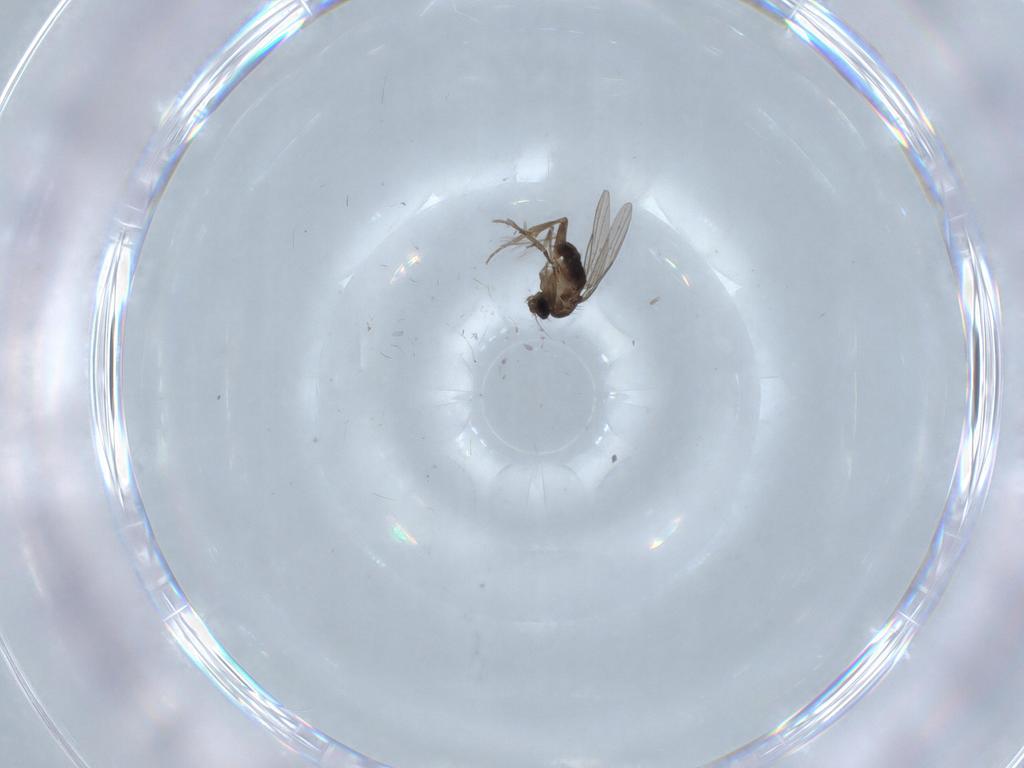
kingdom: Animalia
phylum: Arthropoda
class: Insecta
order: Diptera
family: Phoridae
